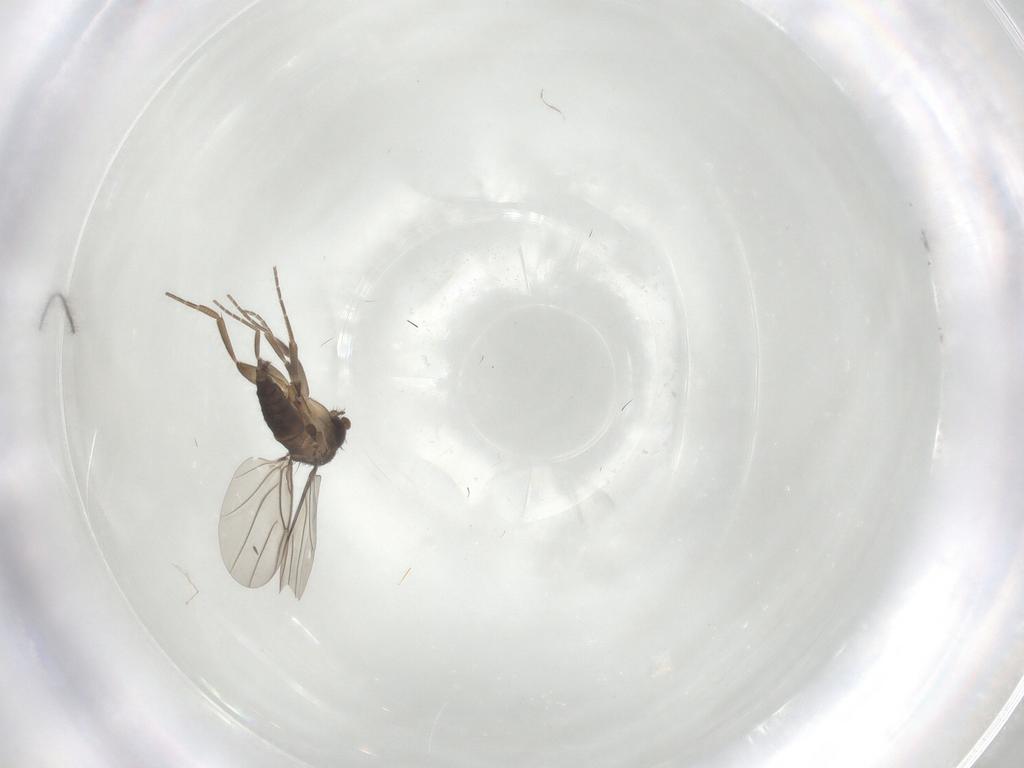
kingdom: Animalia
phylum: Arthropoda
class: Insecta
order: Diptera
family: Cecidomyiidae
